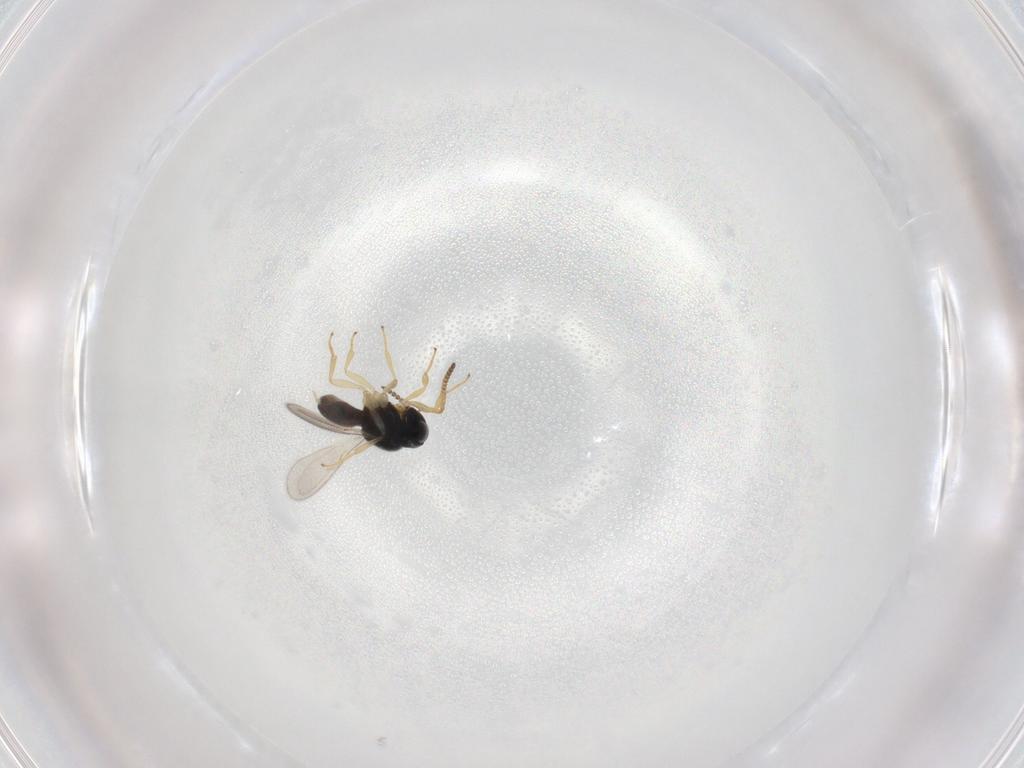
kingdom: Animalia
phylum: Arthropoda
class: Insecta
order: Hymenoptera
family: Scelionidae
